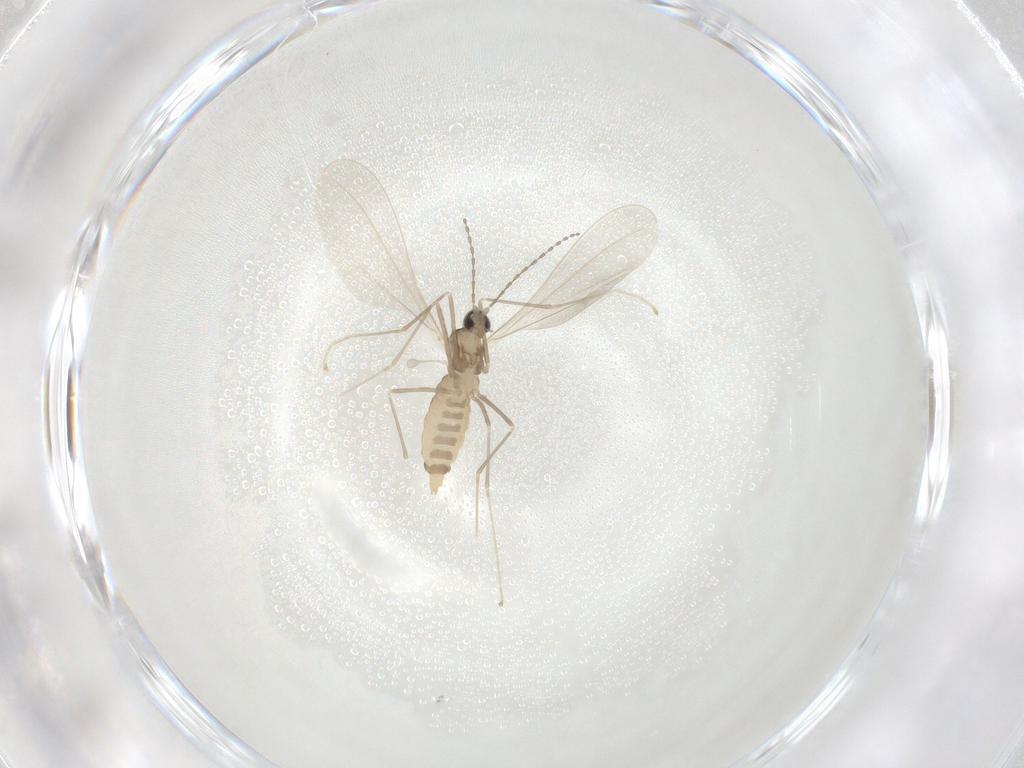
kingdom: Animalia
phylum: Arthropoda
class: Insecta
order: Diptera
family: Cecidomyiidae
